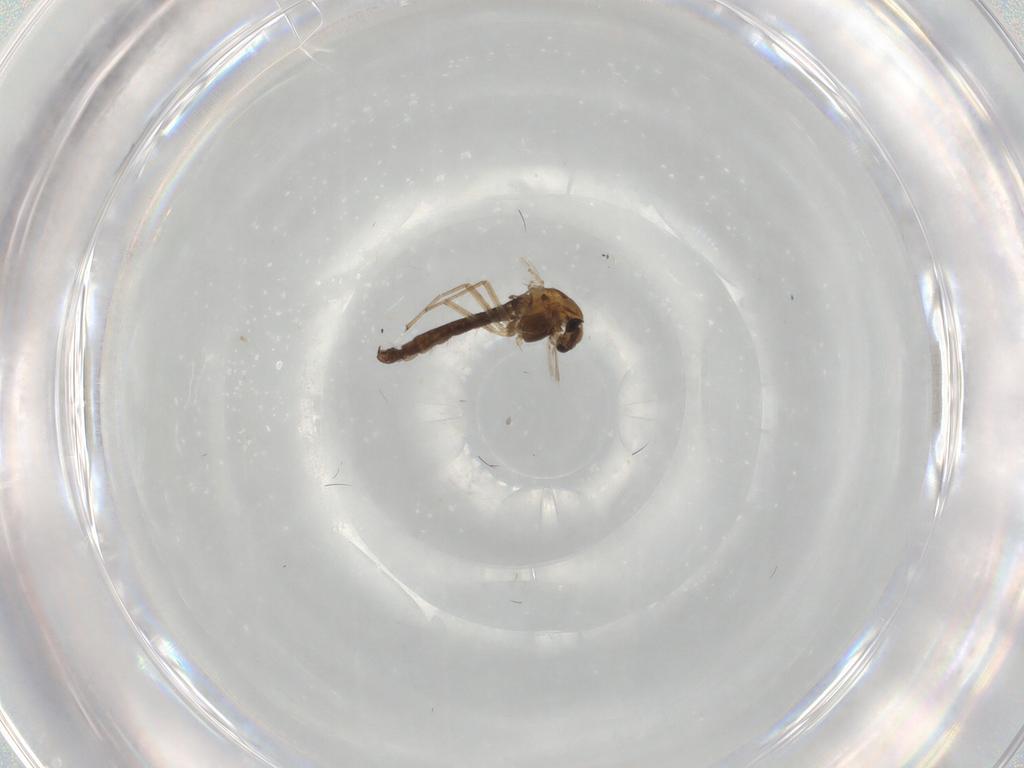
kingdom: Animalia
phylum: Arthropoda
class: Insecta
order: Diptera
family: Chironomidae
